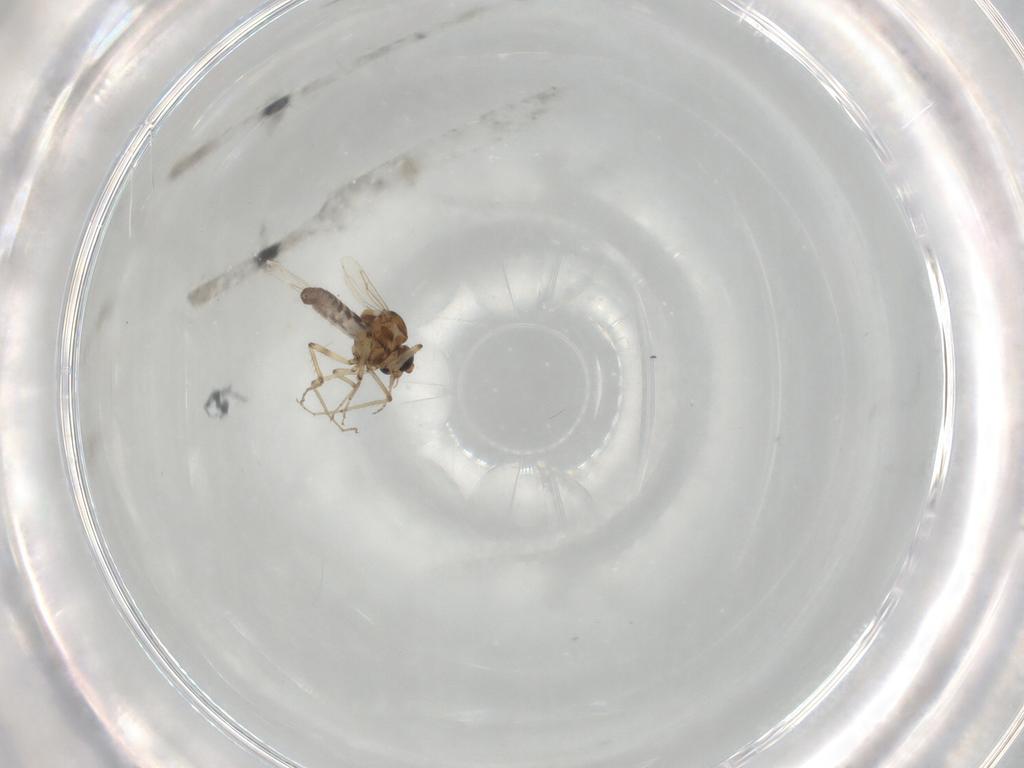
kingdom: Animalia
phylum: Arthropoda
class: Insecta
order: Diptera
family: Ceratopogonidae
